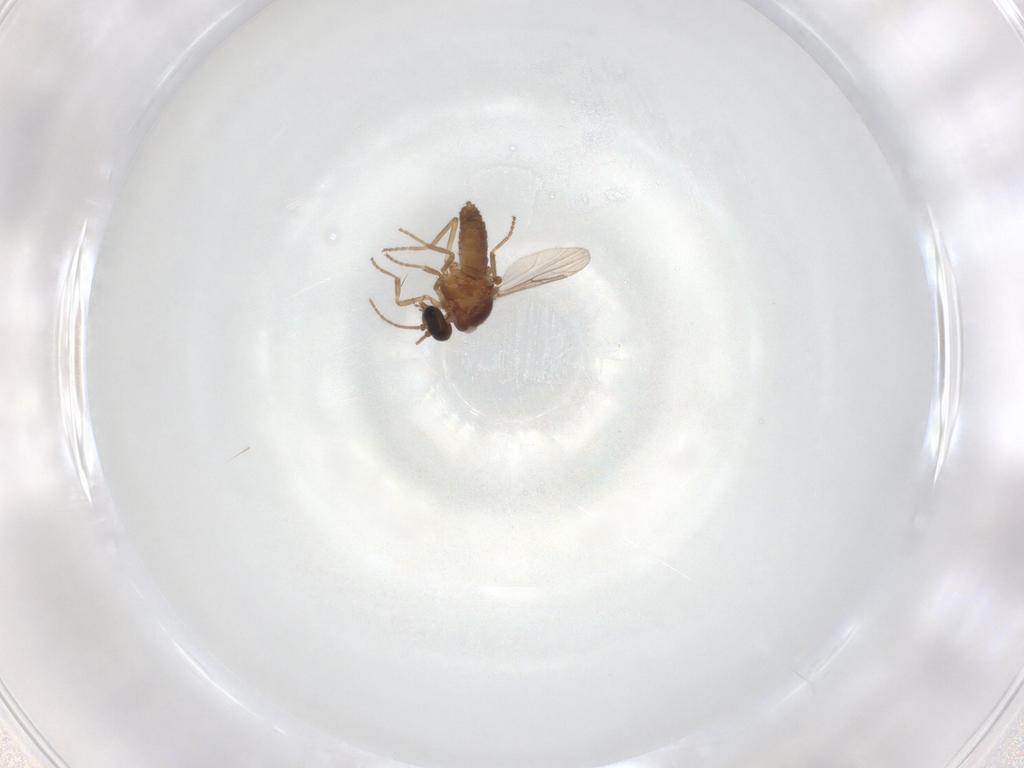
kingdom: Animalia
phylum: Arthropoda
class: Insecta
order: Diptera
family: Ceratopogonidae
